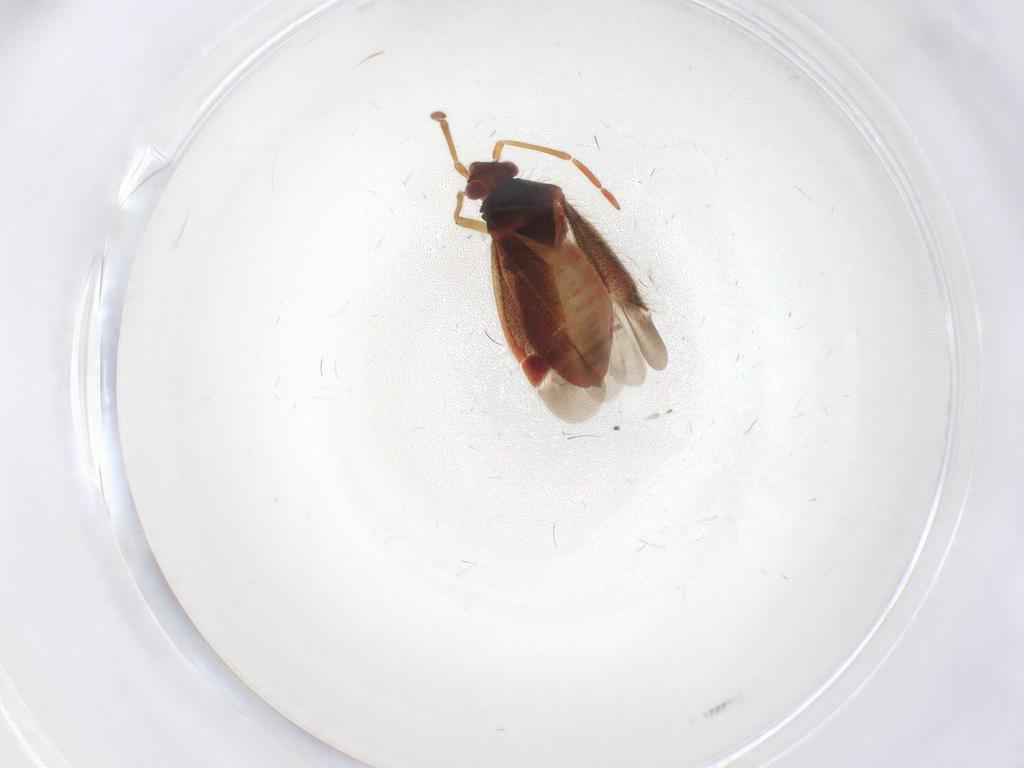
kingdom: Animalia
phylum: Arthropoda
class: Insecta
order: Hemiptera
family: Miridae
